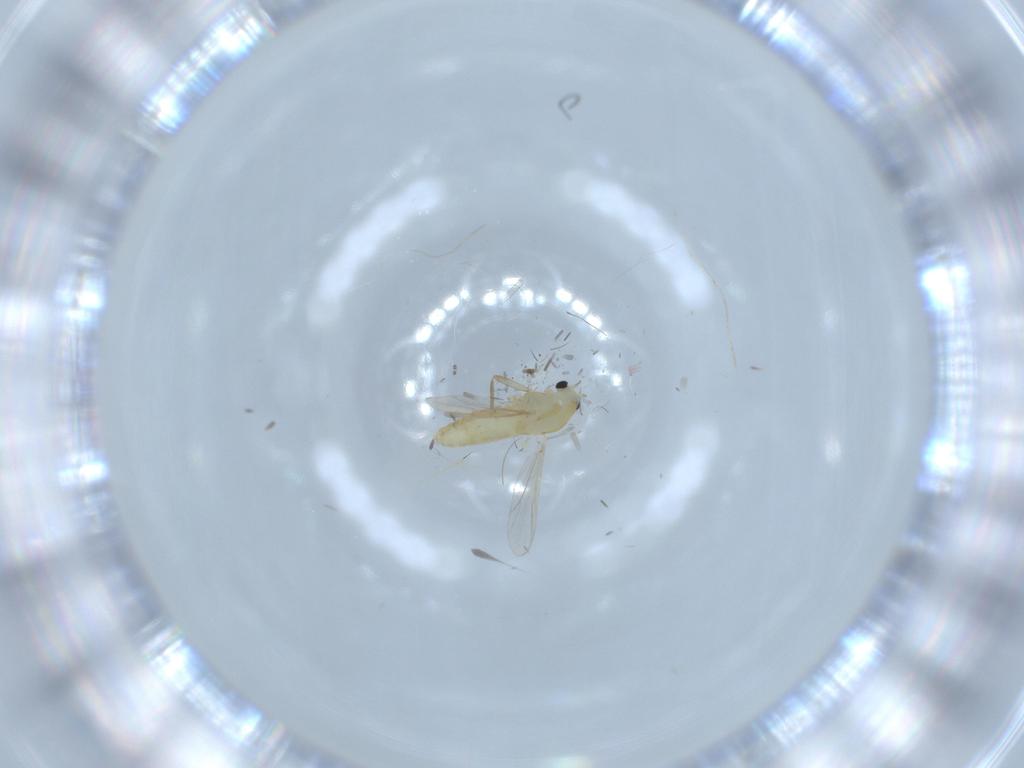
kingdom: Animalia
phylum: Arthropoda
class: Insecta
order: Diptera
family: Chironomidae
